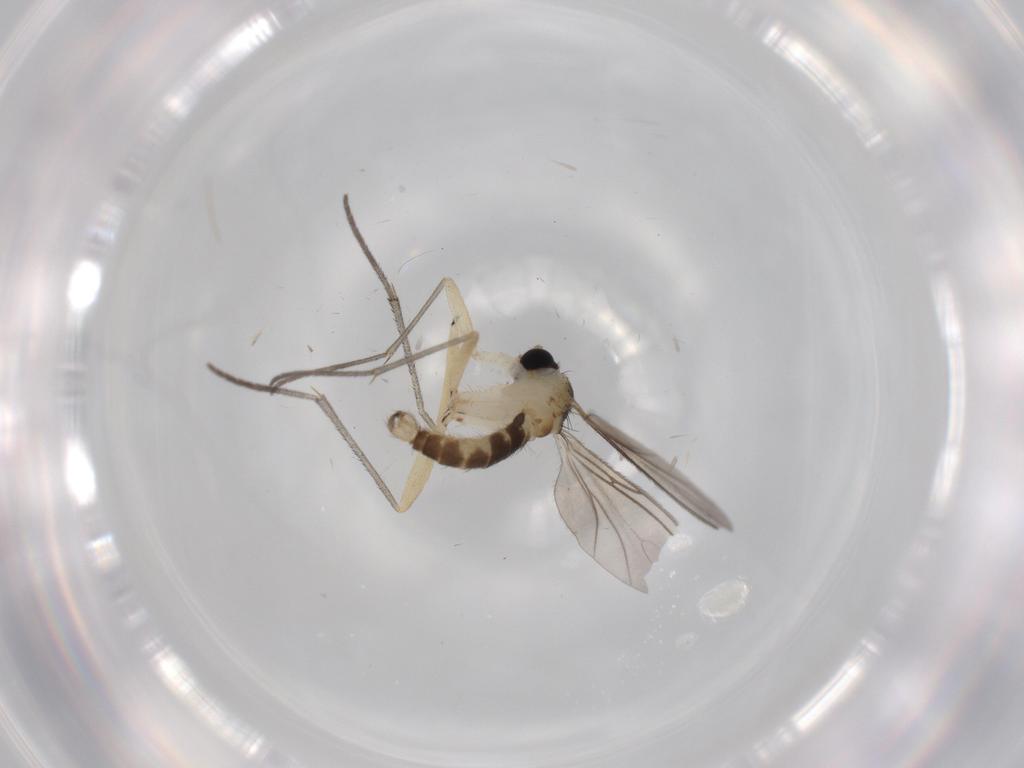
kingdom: Animalia
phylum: Arthropoda
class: Insecta
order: Diptera
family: Sciaridae
